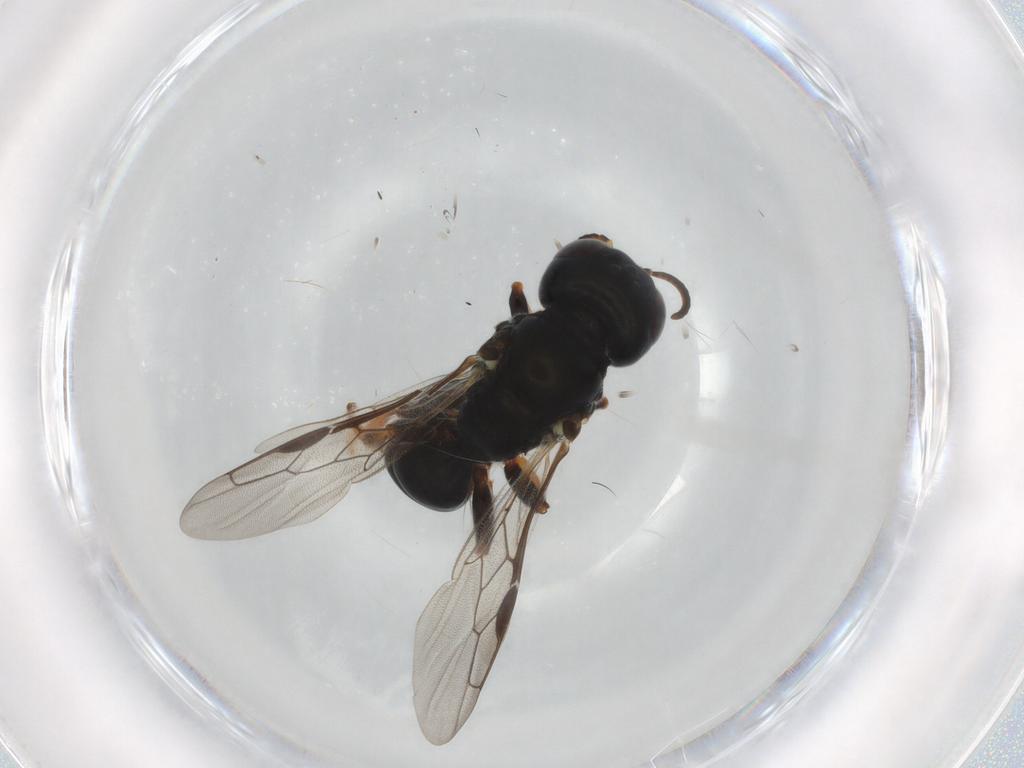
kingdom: Animalia
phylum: Arthropoda
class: Insecta
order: Hymenoptera
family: Crabronidae
